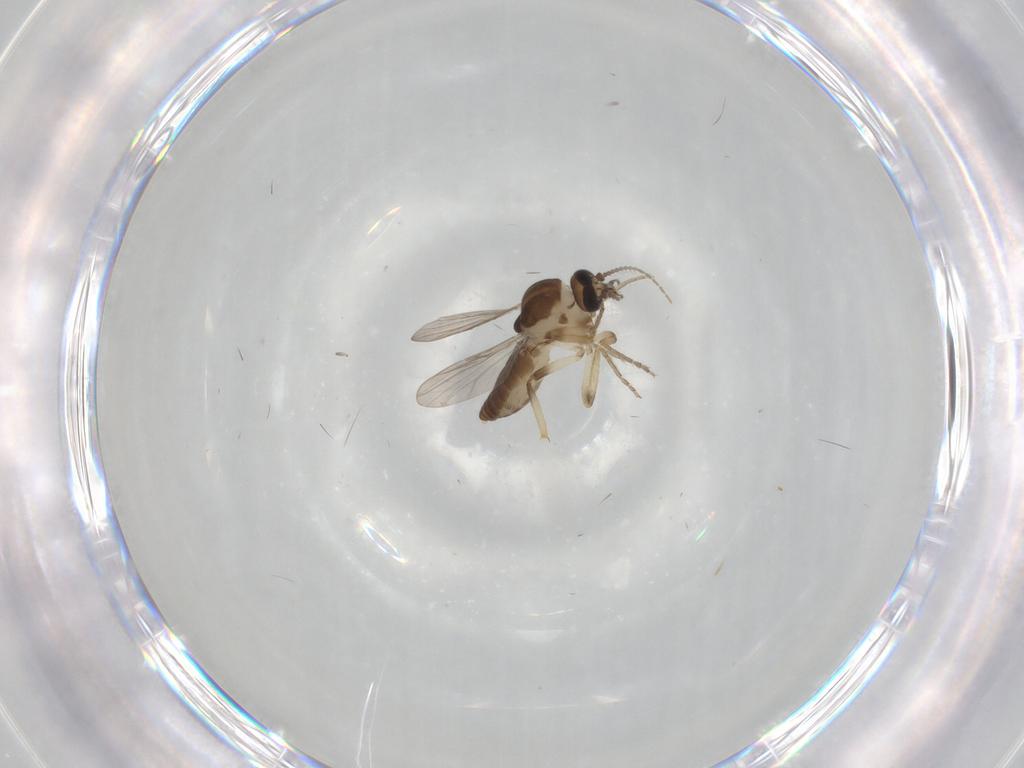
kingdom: Animalia
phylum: Arthropoda
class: Insecta
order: Diptera
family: Ceratopogonidae
